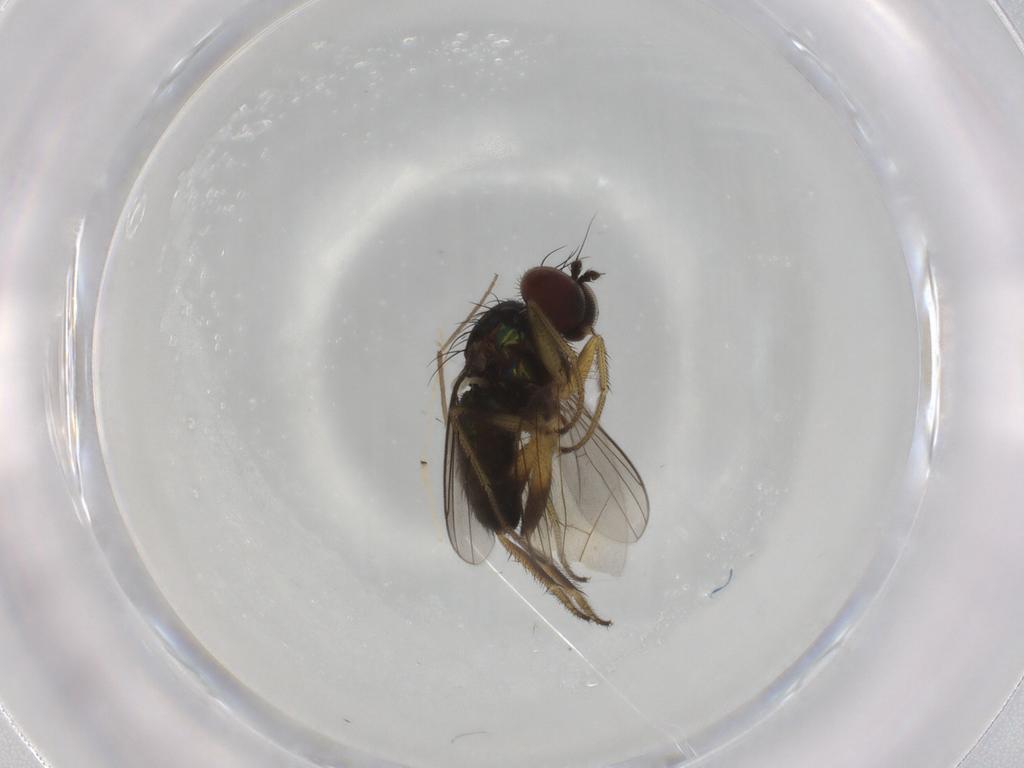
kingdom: Animalia
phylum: Arthropoda
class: Insecta
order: Diptera
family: Dolichopodidae
